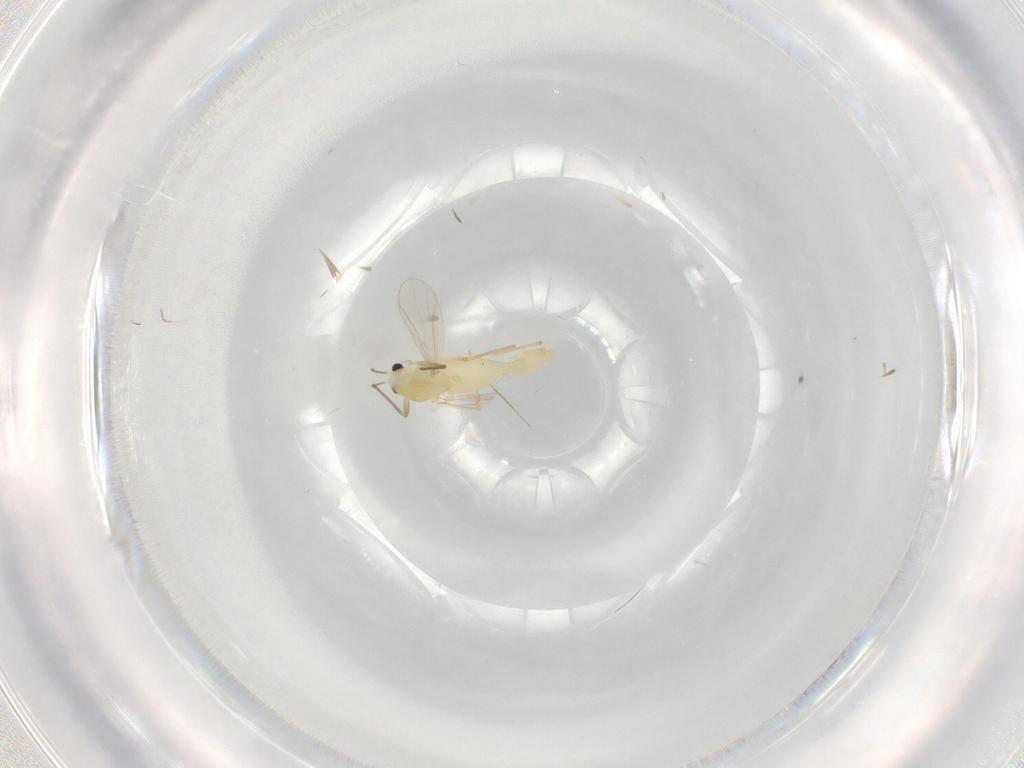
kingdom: Animalia
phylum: Arthropoda
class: Insecta
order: Diptera
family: Chironomidae
